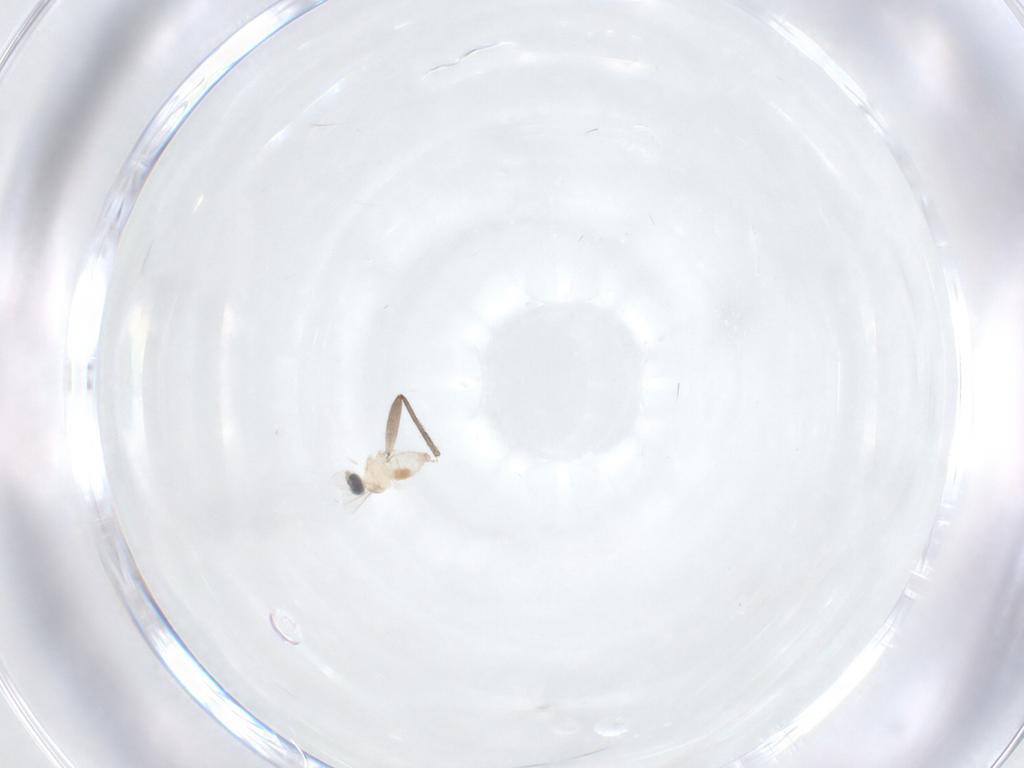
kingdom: Animalia
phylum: Arthropoda
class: Insecta
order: Diptera
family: Cecidomyiidae
